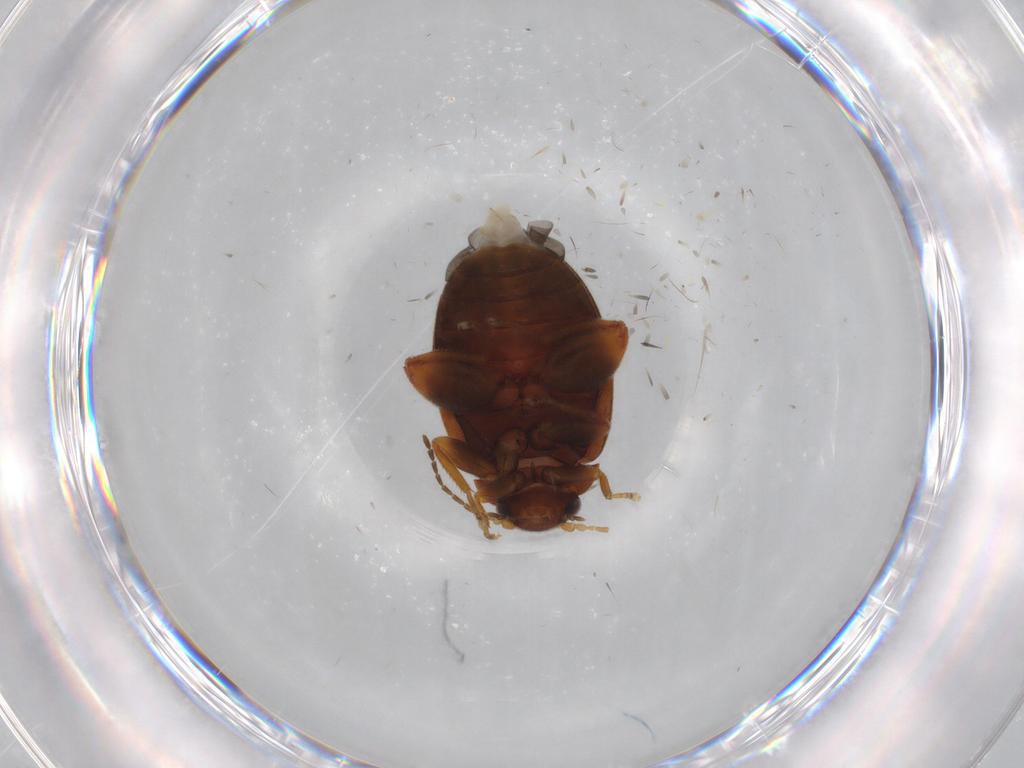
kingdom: Animalia
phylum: Arthropoda
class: Insecta
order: Coleoptera
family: Scirtidae
